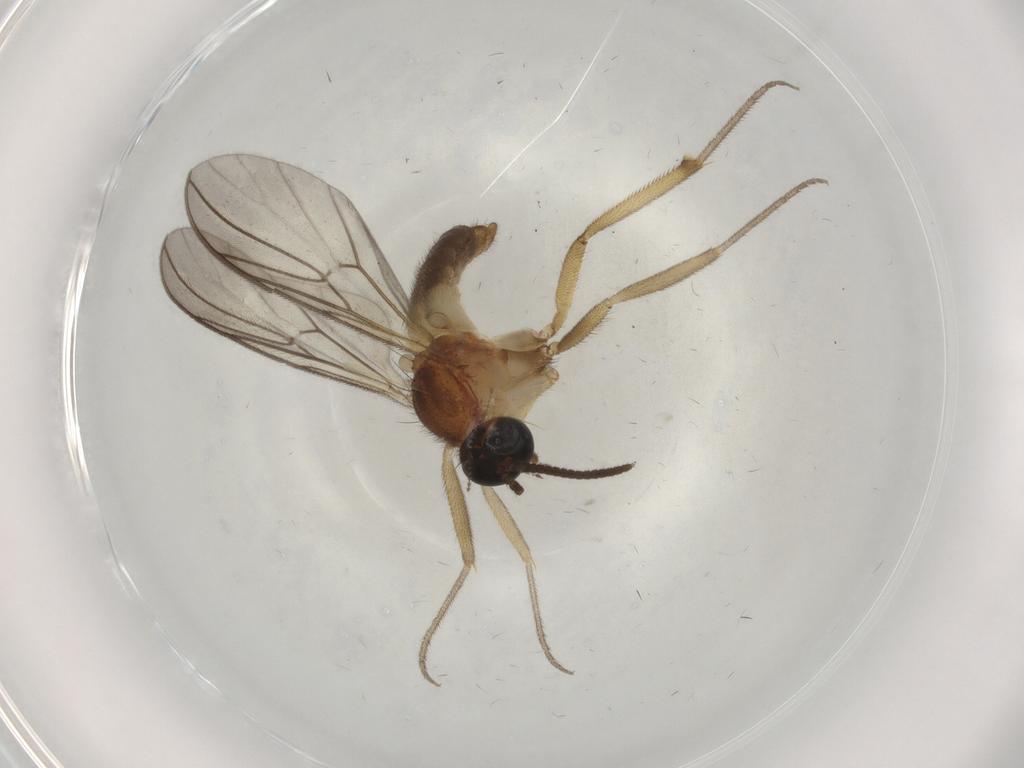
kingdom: Animalia
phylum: Arthropoda
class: Insecta
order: Diptera
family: Cecidomyiidae
